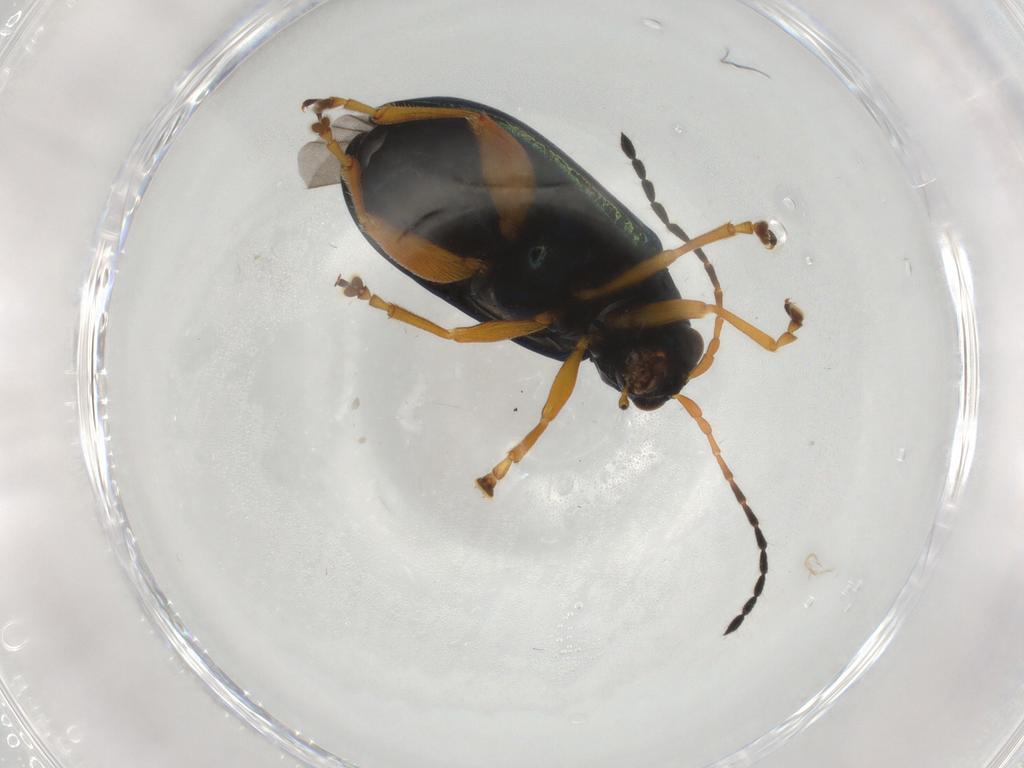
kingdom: Animalia
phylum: Arthropoda
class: Insecta
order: Coleoptera
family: Chrysomelidae
